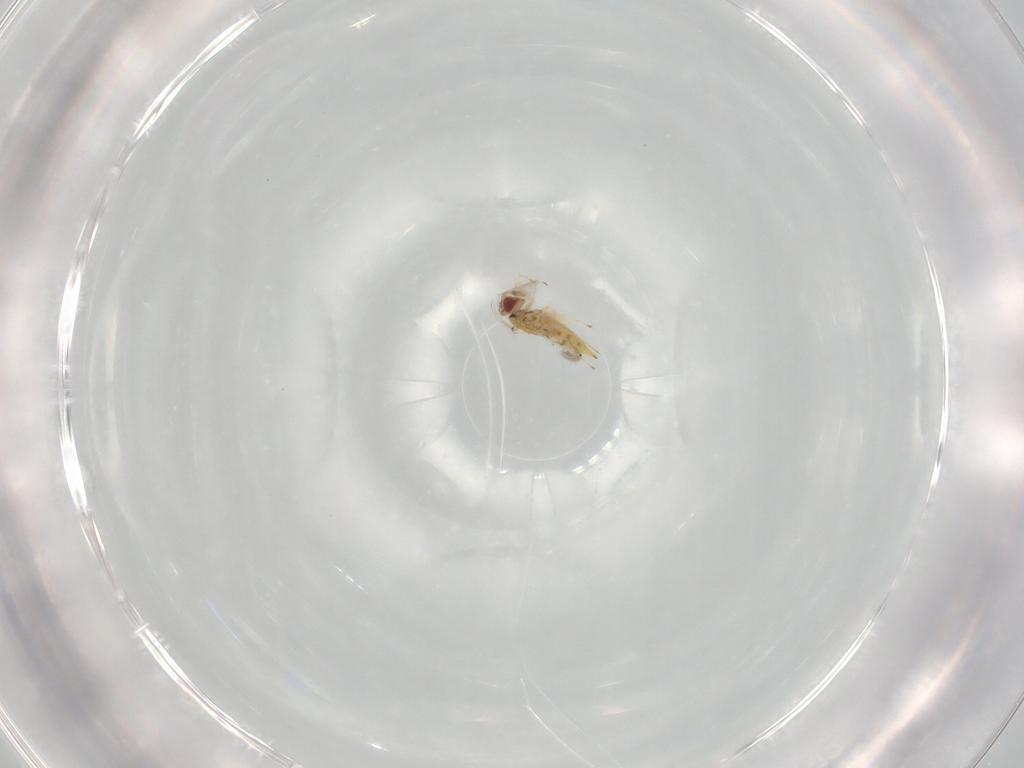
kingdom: Animalia
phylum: Arthropoda
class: Insecta
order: Hymenoptera
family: Trichogrammatidae
